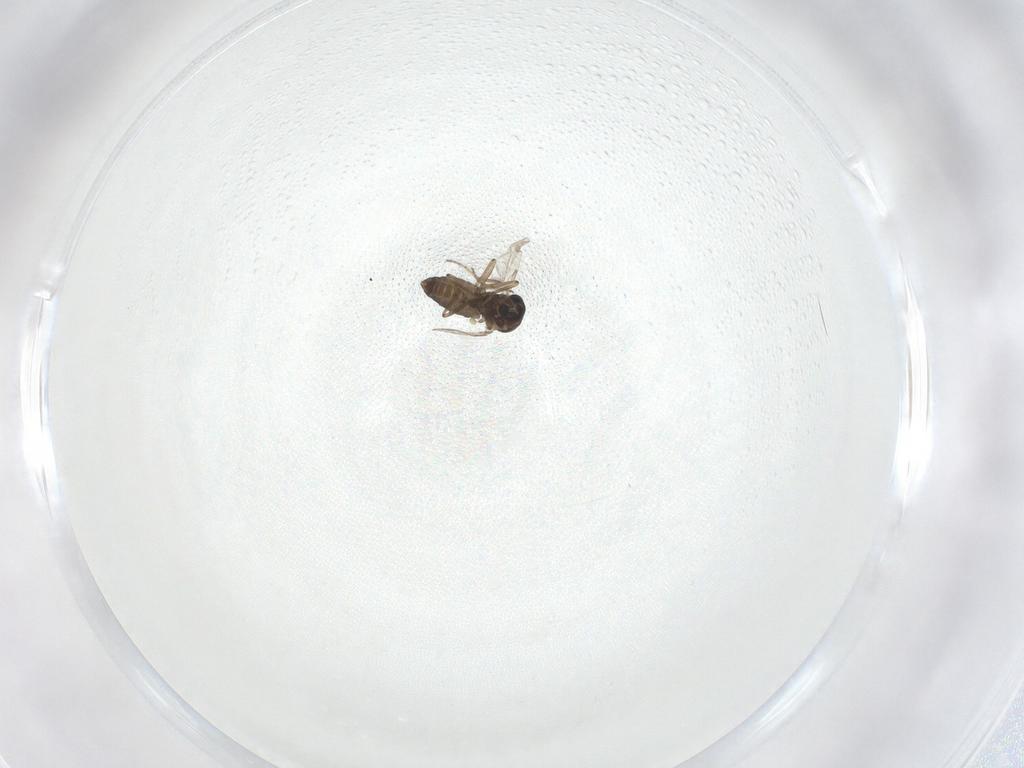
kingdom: Animalia
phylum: Arthropoda
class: Insecta
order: Diptera
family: Ceratopogonidae
